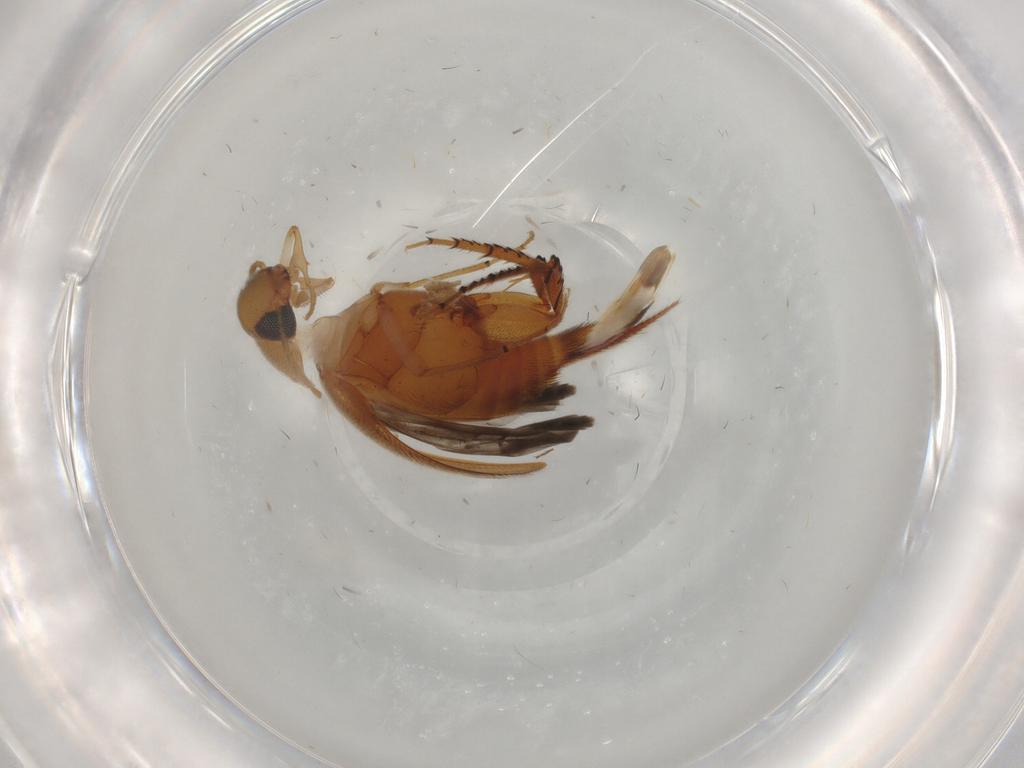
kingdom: Animalia
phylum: Arthropoda
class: Insecta
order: Coleoptera
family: Mordellidae
